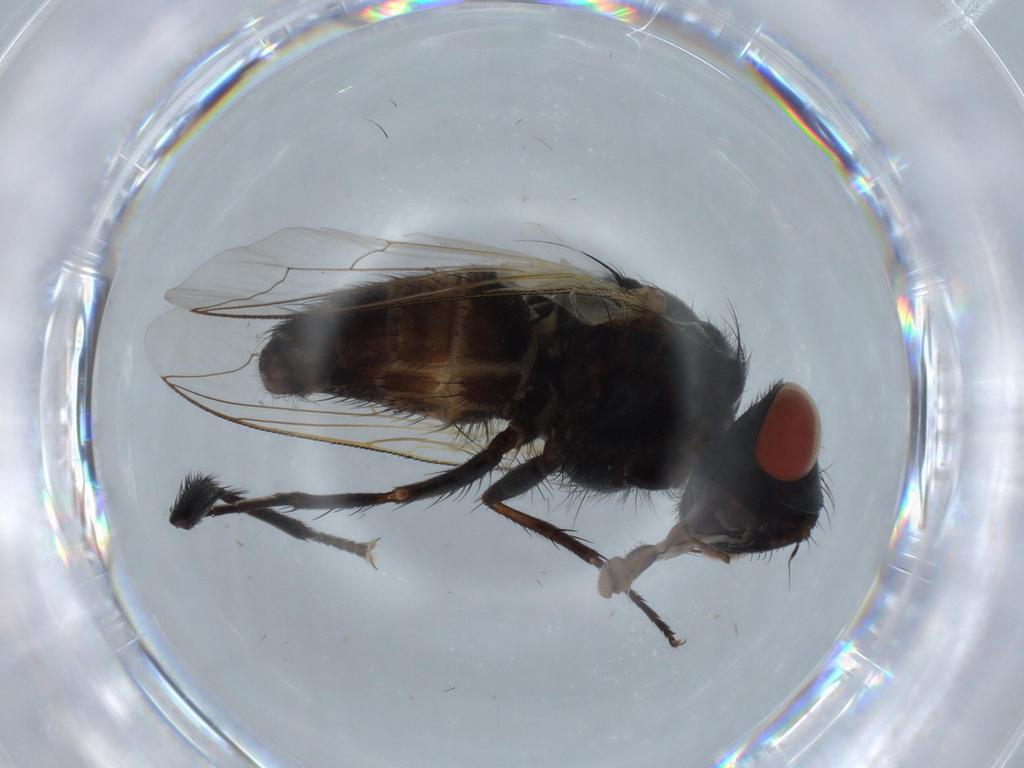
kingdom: Animalia
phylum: Arthropoda
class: Insecta
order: Diptera
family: Sarcophagidae
